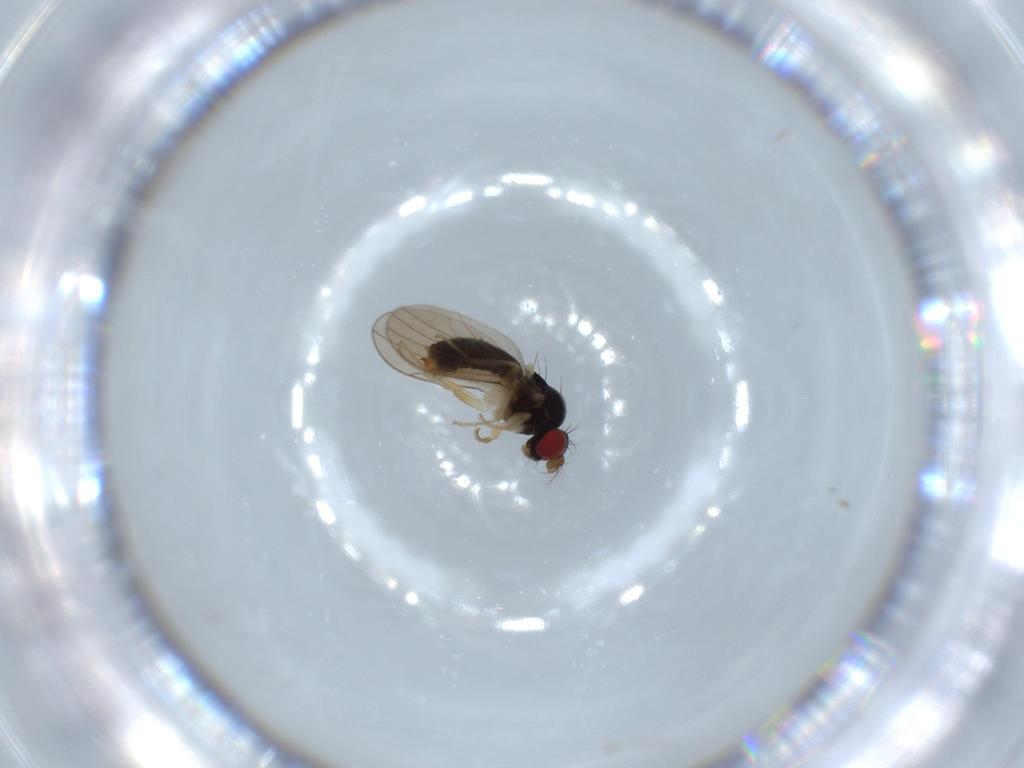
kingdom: Animalia
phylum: Arthropoda
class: Insecta
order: Diptera
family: Drosophilidae
